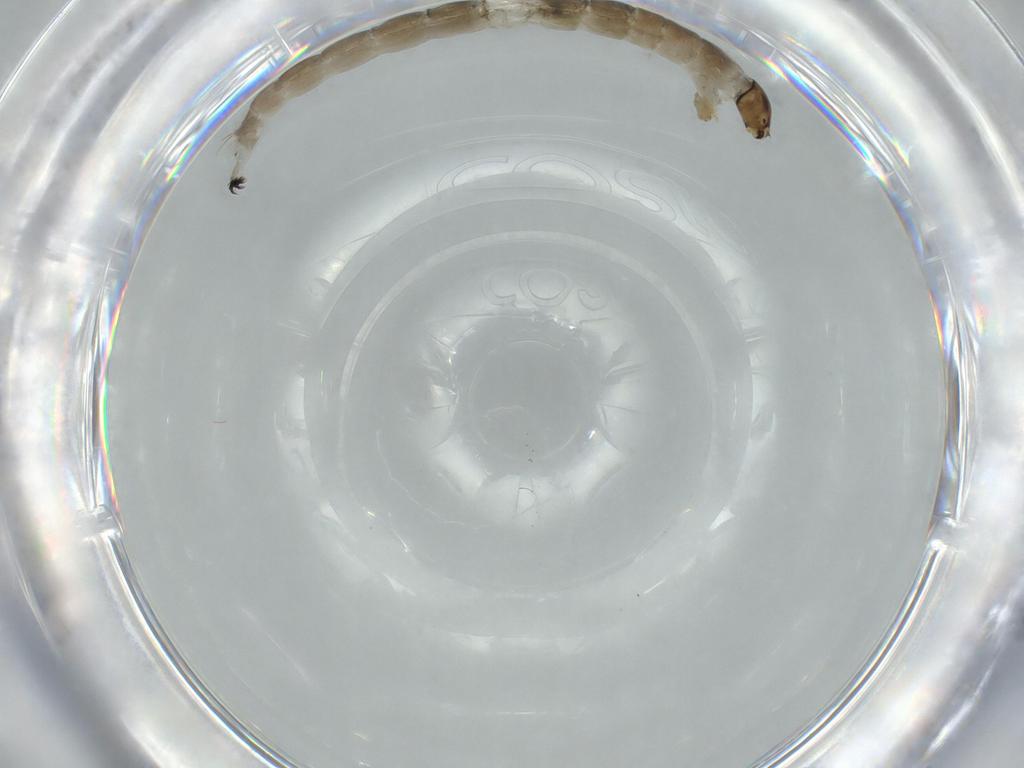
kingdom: Animalia
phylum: Arthropoda
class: Insecta
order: Diptera
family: Chironomidae
